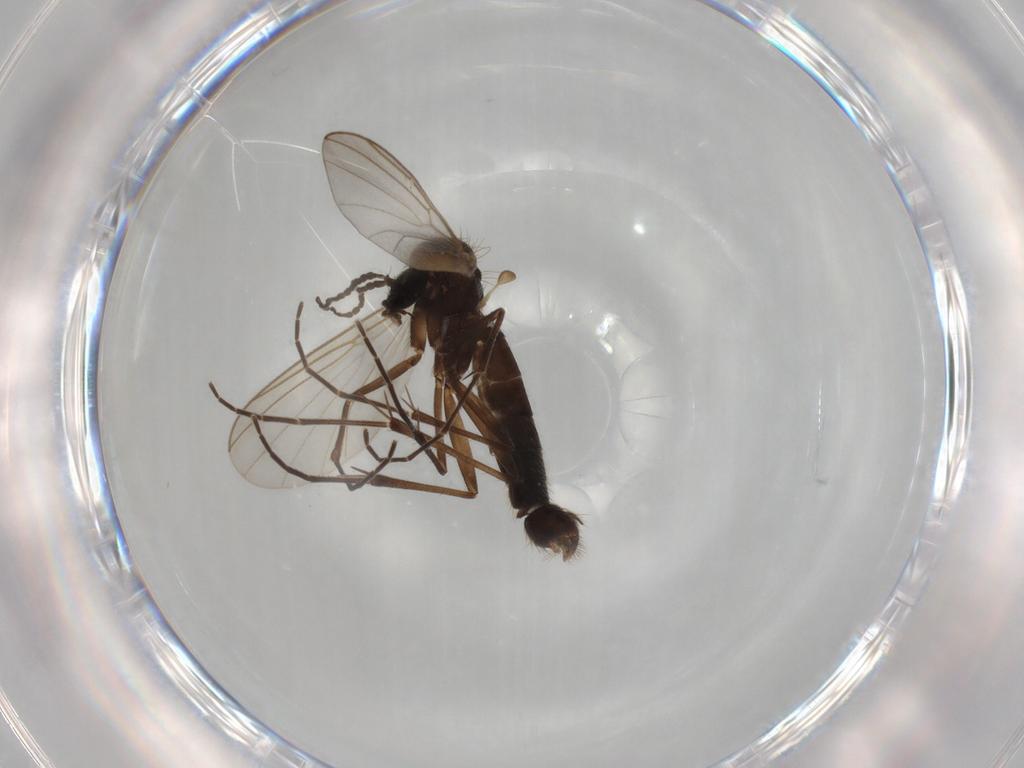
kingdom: Animalia
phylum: Arthropoda
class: Insecta
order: Diptera
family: Mycetophilidae
